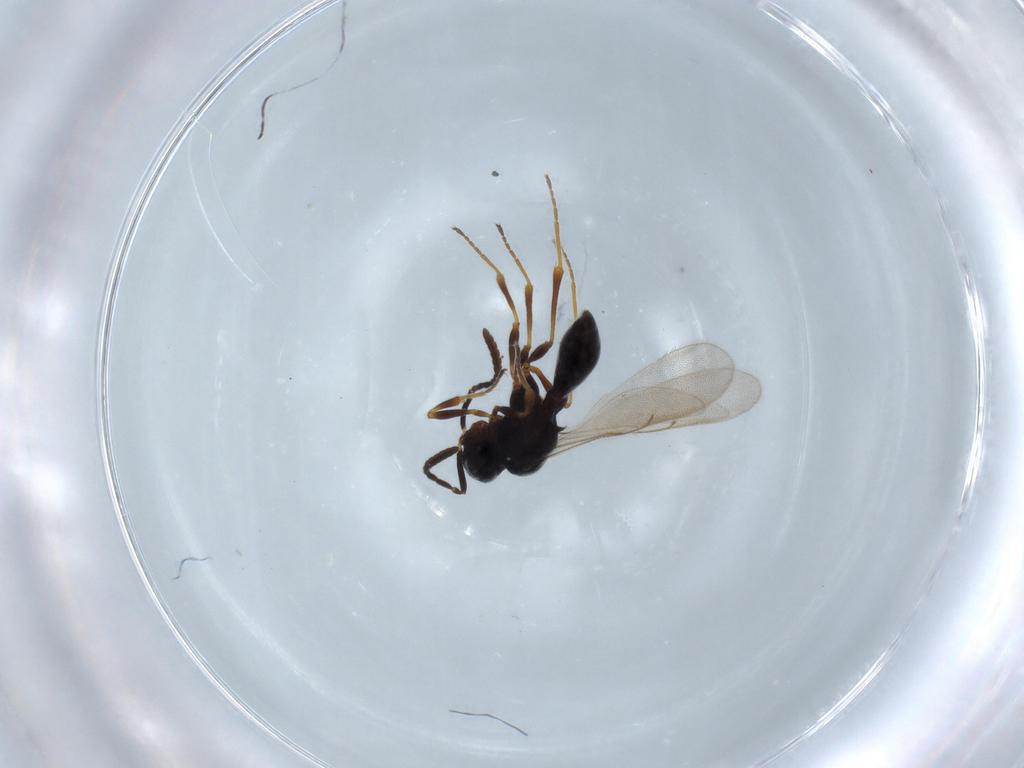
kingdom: Animalia
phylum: Arthropoda
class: Insecta
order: Hymenoptera
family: Scelionidae
